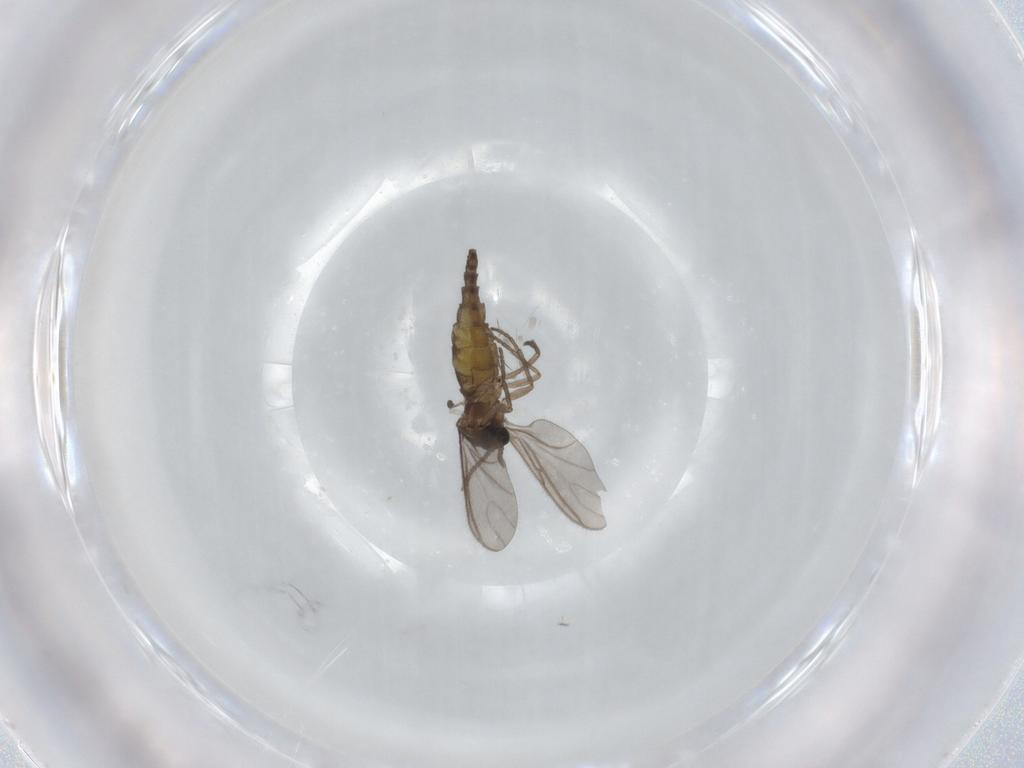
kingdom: Animalia
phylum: Arthropoda
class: Insecta
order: Diptera
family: Sciaridae
